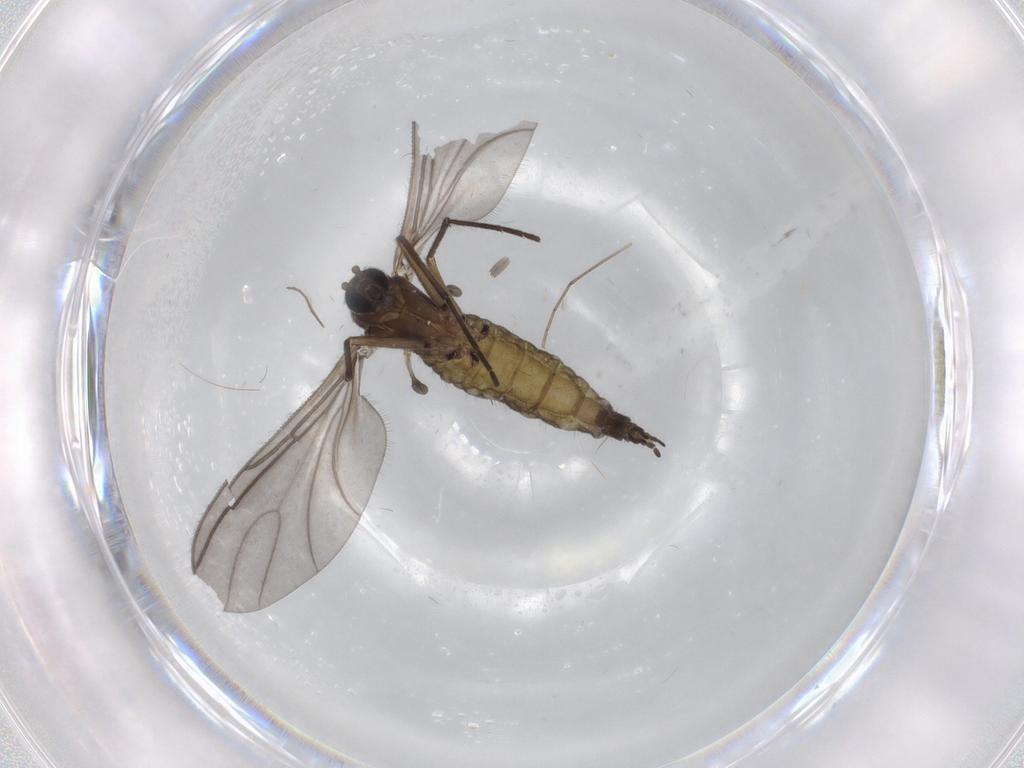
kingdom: Animalia
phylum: Arthropoda
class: Insecta
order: Diptera
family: Cecidomyiidae
